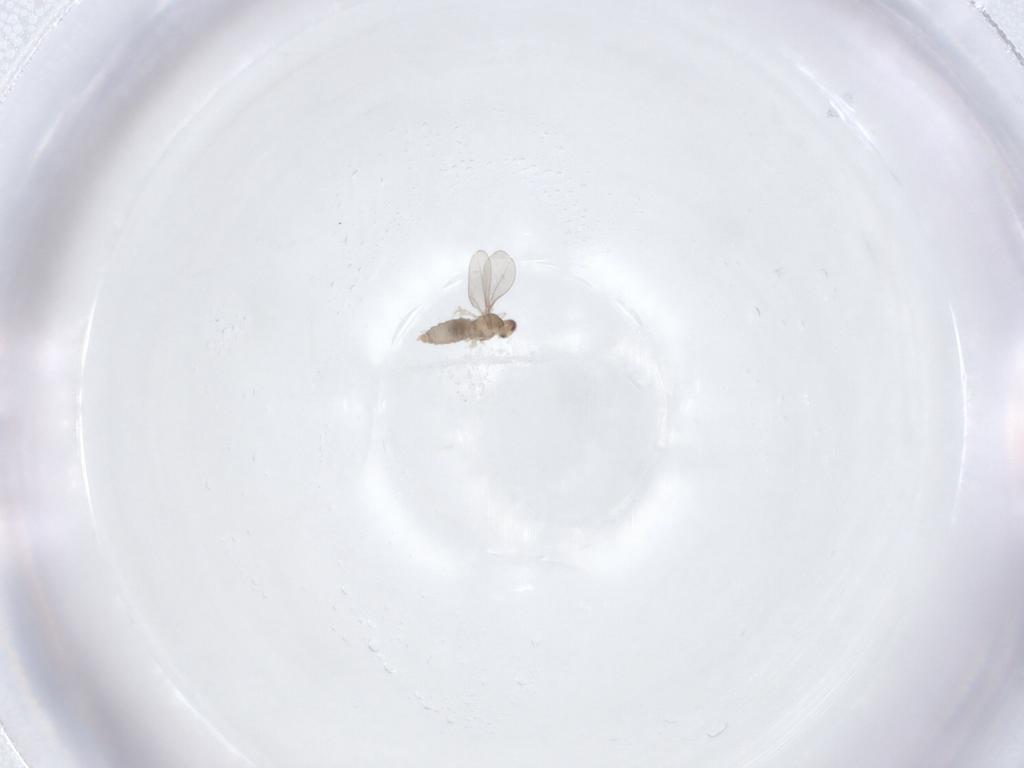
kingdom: Animalia
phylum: Arthropoda
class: Insecta
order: Diptera
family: Cecidomyiidae
